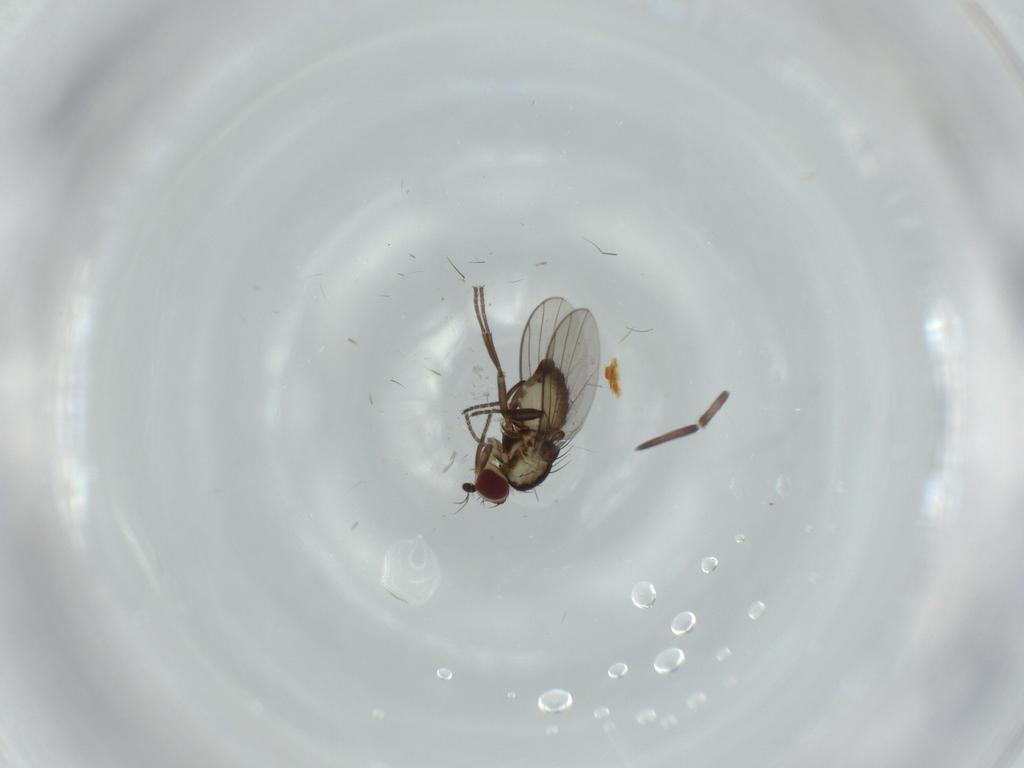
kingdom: Animalia
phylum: Arthropoda
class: Insecta
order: Diptera
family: Agromyzidae
